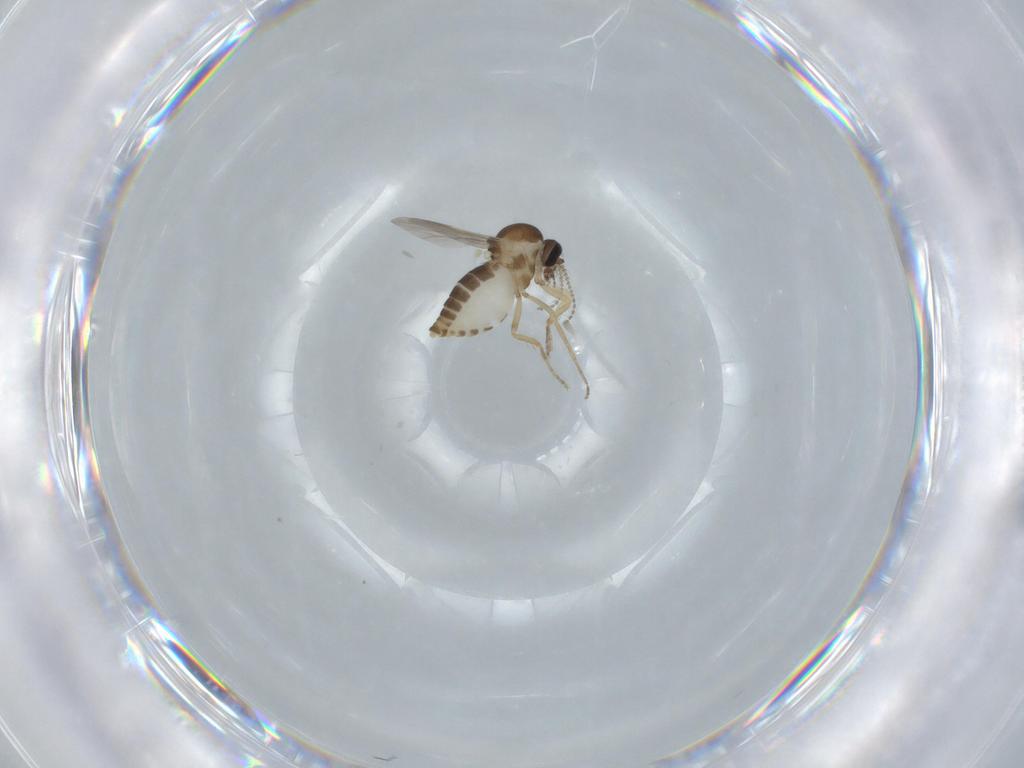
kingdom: Animalia
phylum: Arthropoda
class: Insecta
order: Diptera
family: Ceratopogonidae
